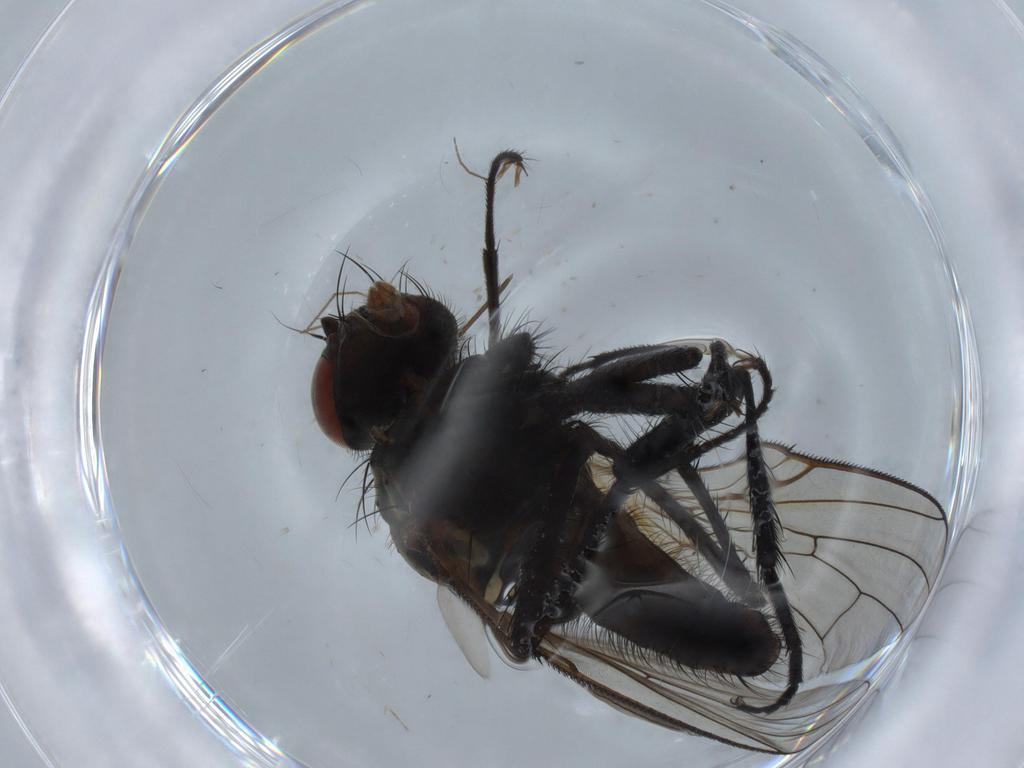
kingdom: Animalia
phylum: Arthropoda
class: Insecta
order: Diptera
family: Anthomyiidae
